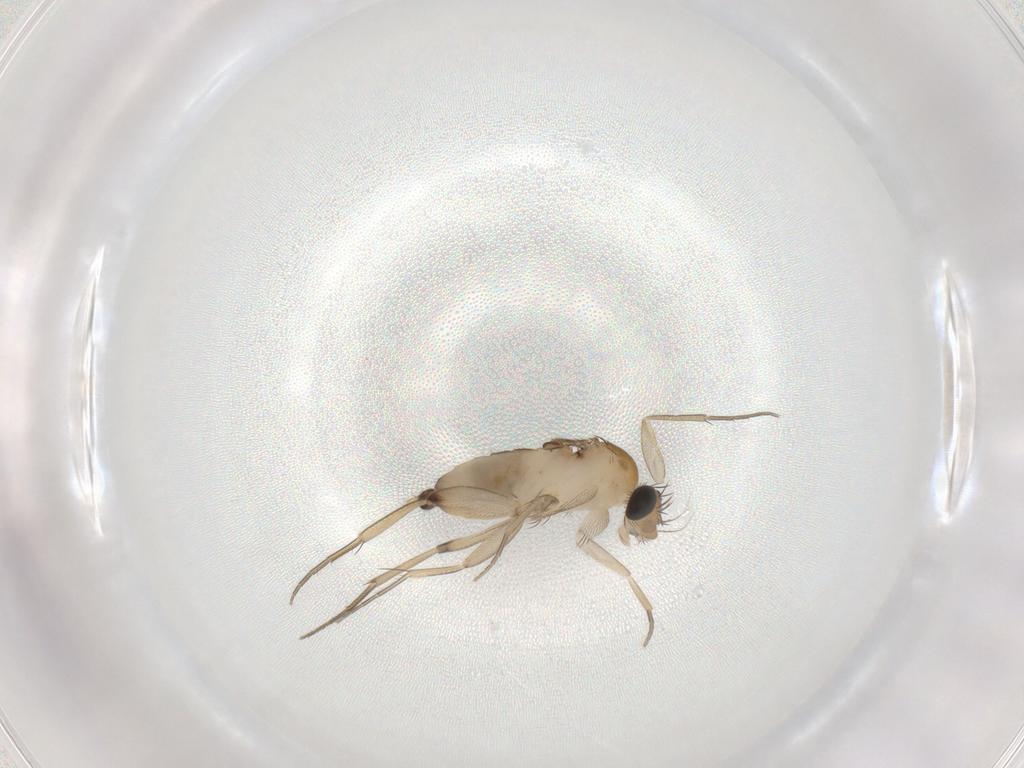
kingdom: Animalia
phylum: Arthropoda
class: Insecta
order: Diptera
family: Phoridae
